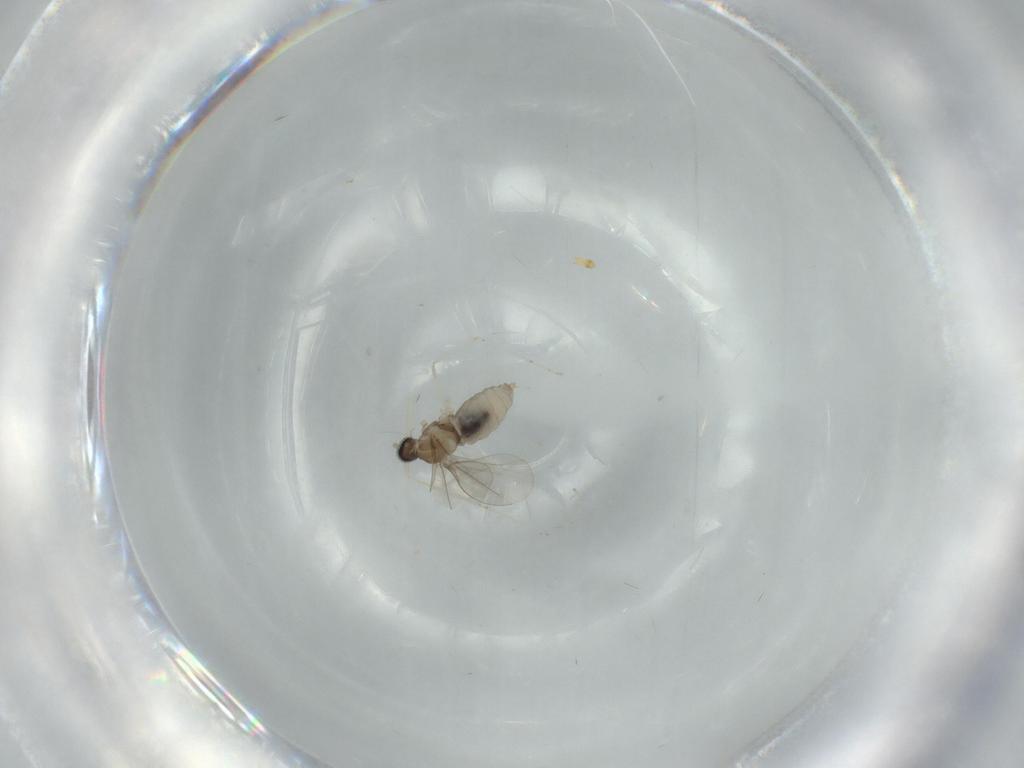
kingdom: Animalia
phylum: Arthropoda
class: Insecta
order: Diptera
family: Cecidomyiidae
